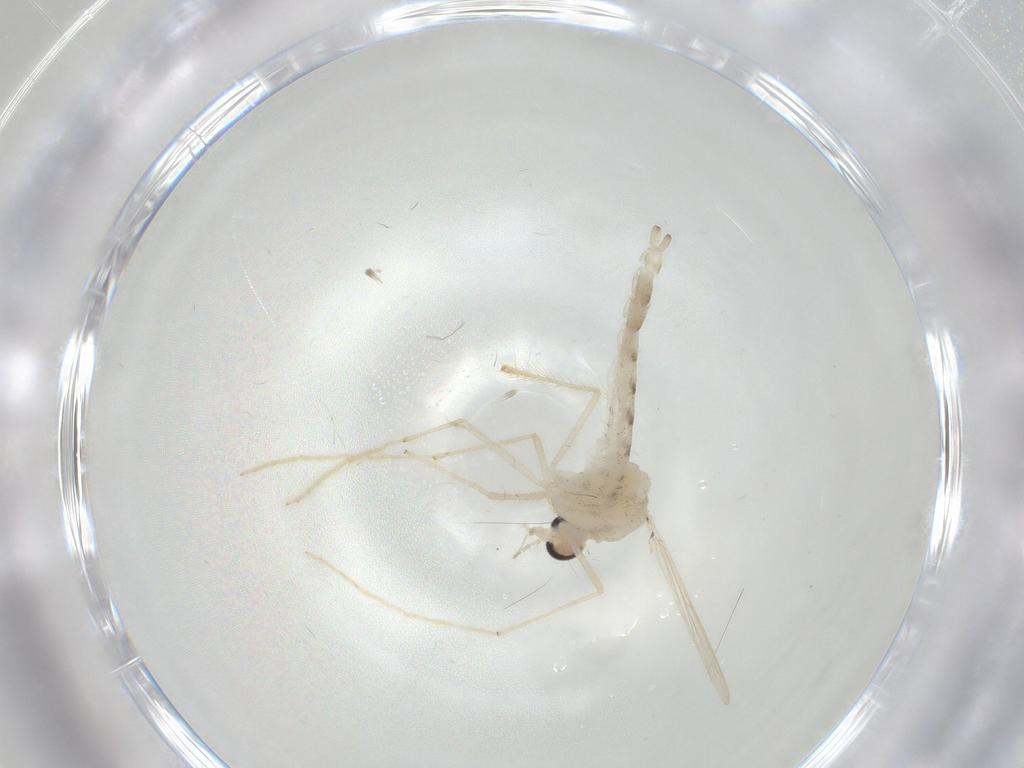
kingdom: Animalia
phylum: Arthropoda
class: Insecta
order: Diptera
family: Chironomidae
